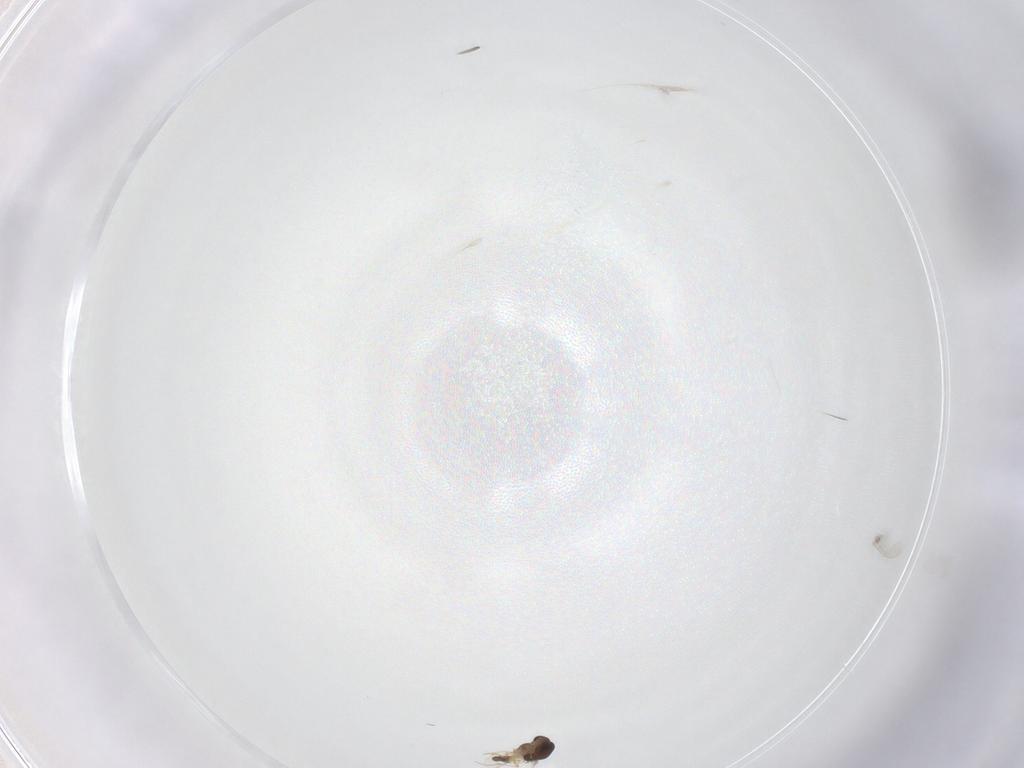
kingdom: Animalia
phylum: Arthropoda
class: Insecta
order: Diptera
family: Cecidomyiidae
